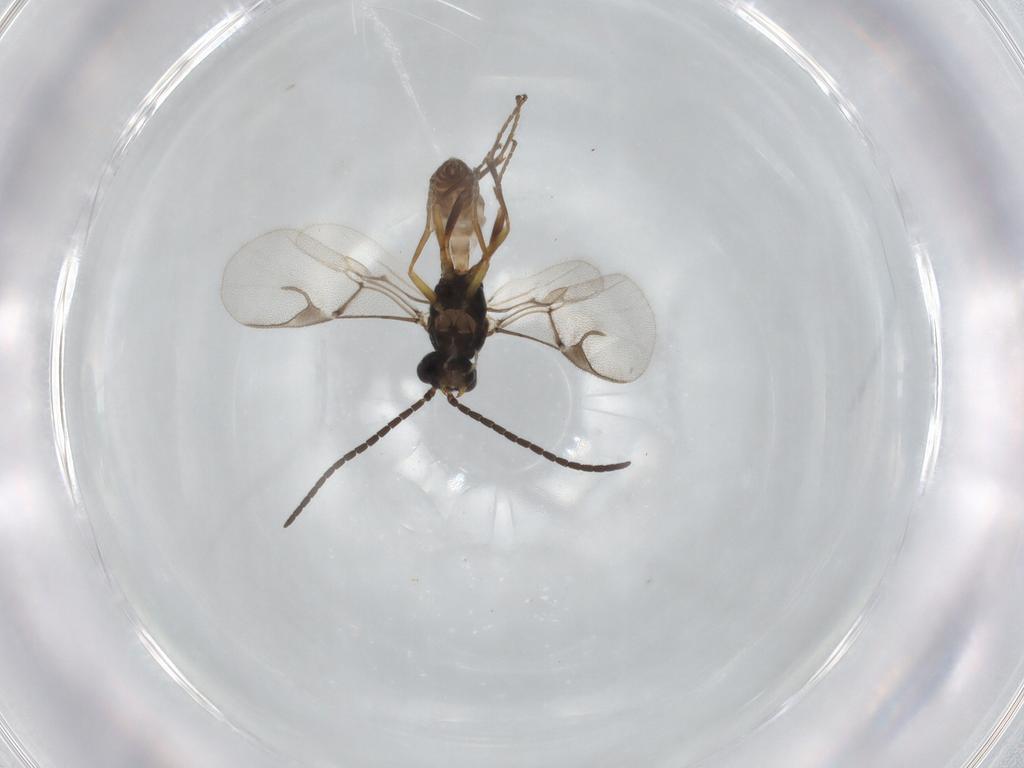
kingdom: Animalia
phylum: Arthropoda
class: Insecta
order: Hymenoptera
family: Braconidae
